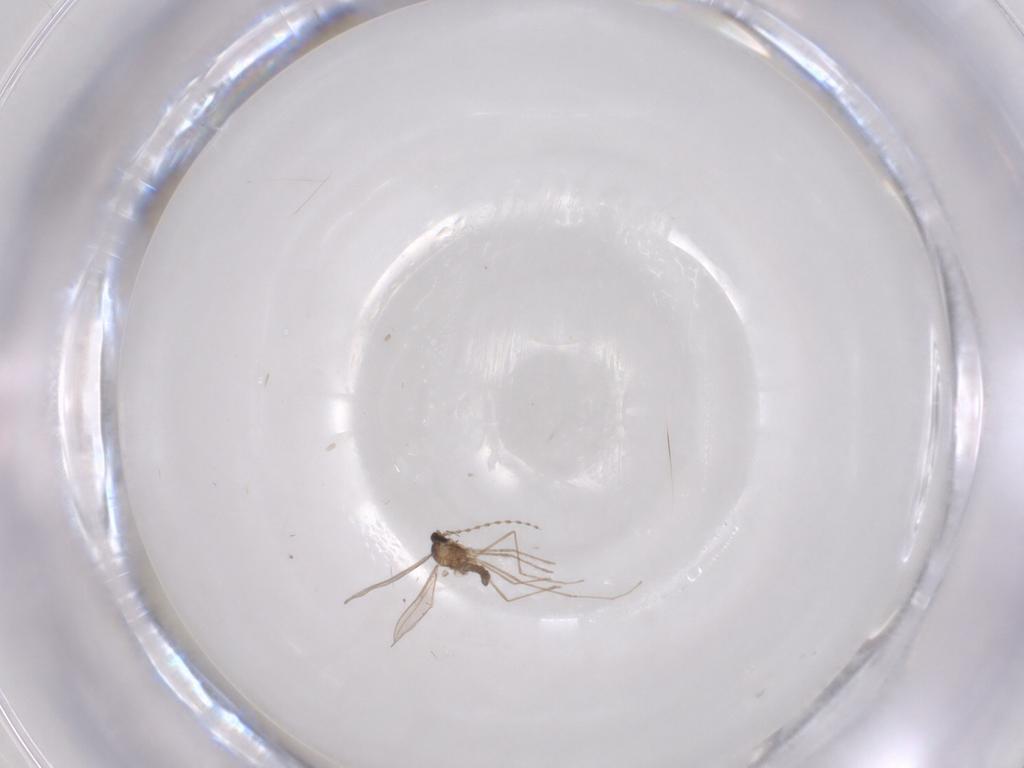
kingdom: Animalia
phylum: Arthropoda
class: Insecta
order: Diptera
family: Cecidomyiidae
